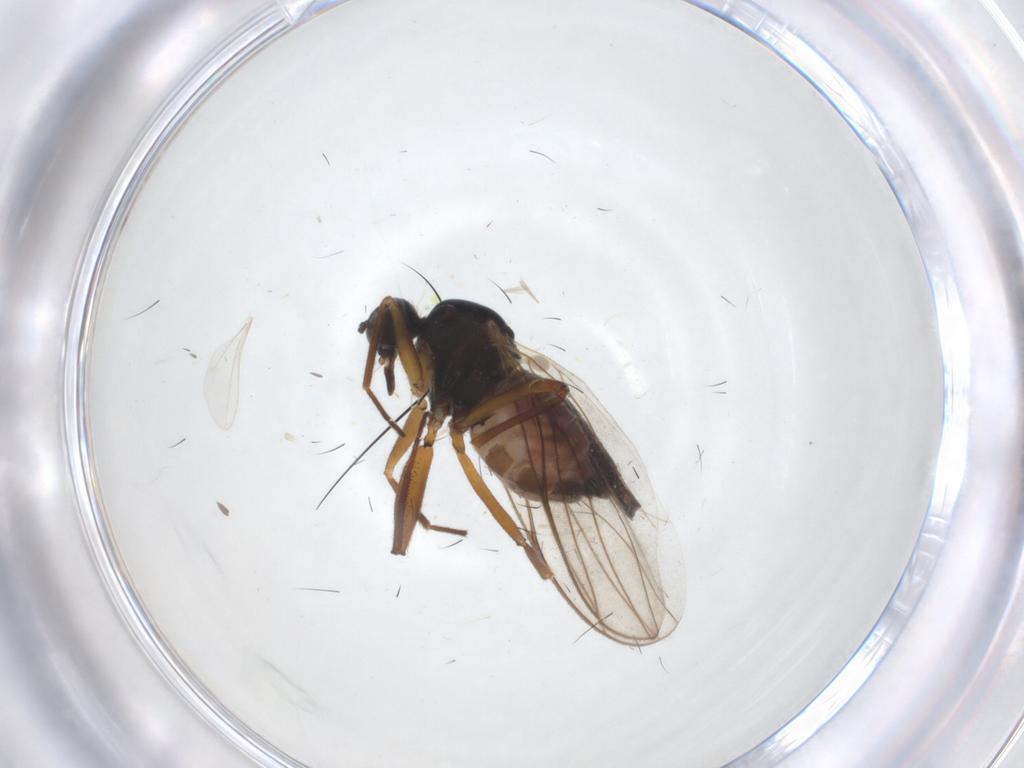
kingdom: Animalia
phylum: Arthropoda
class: Insecta
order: Diptera
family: Hybotidae
